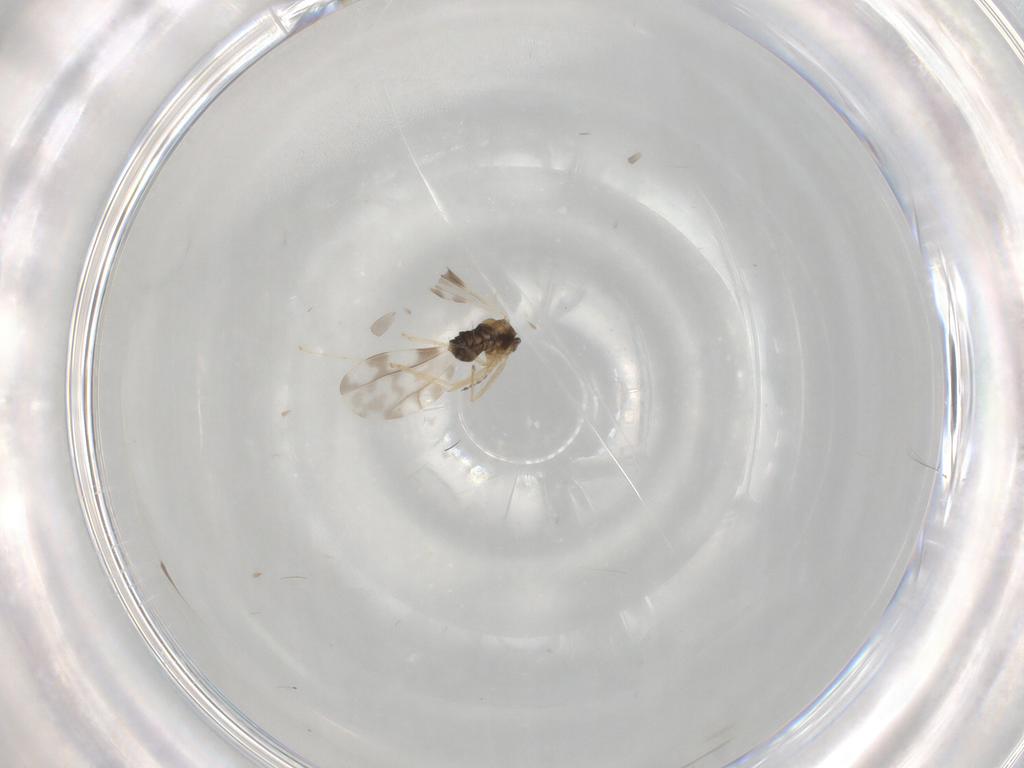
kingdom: Animalia
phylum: Arthropoda
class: Insecta
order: Diptera
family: Cecidomyiidae
